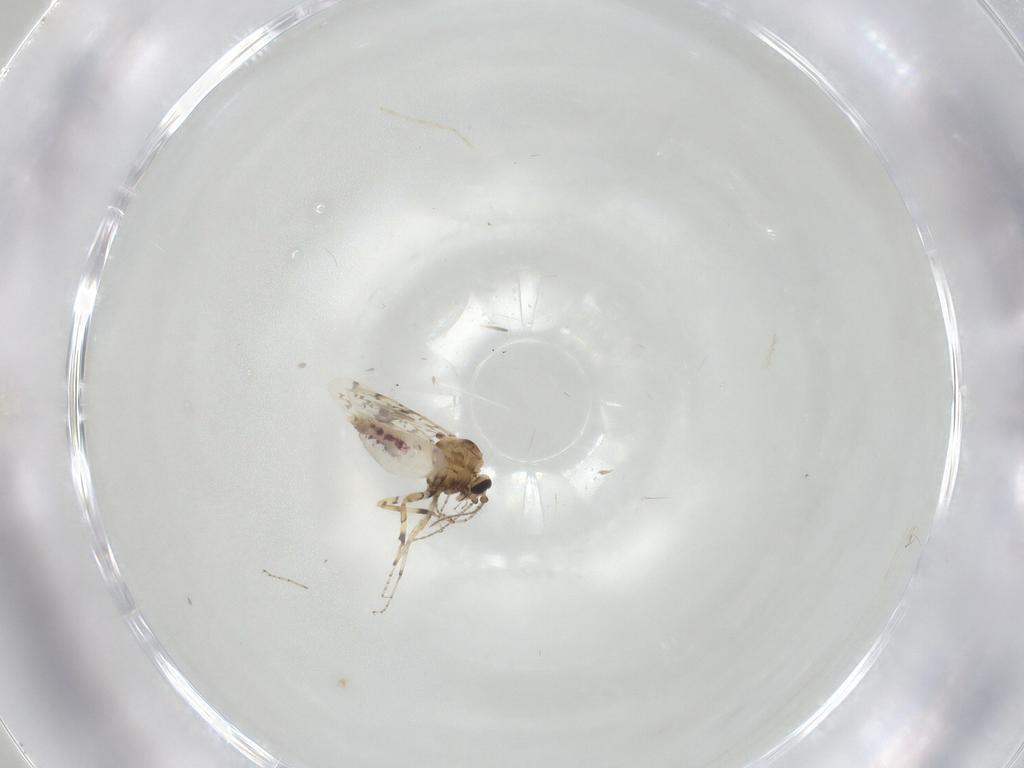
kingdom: Animalia
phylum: Arthropoda
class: Insecta
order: Diptera
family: Ceratopogonidae
